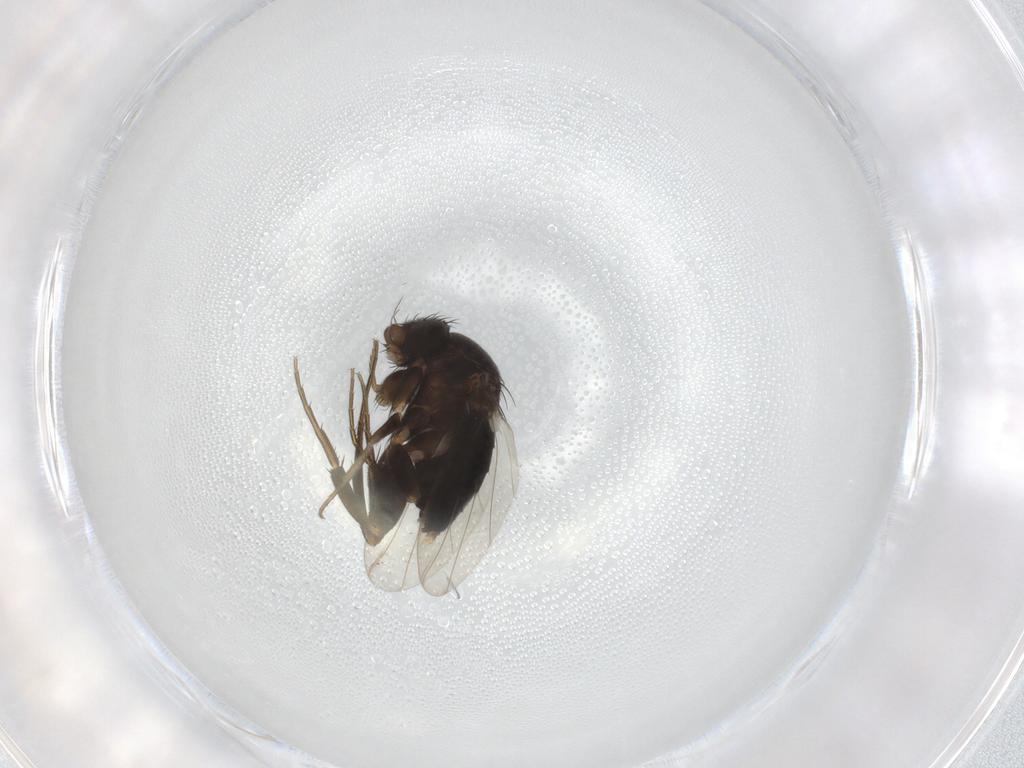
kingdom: Animalia
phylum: Arthropoda
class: Insecta
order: Diptera
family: Phoridae
